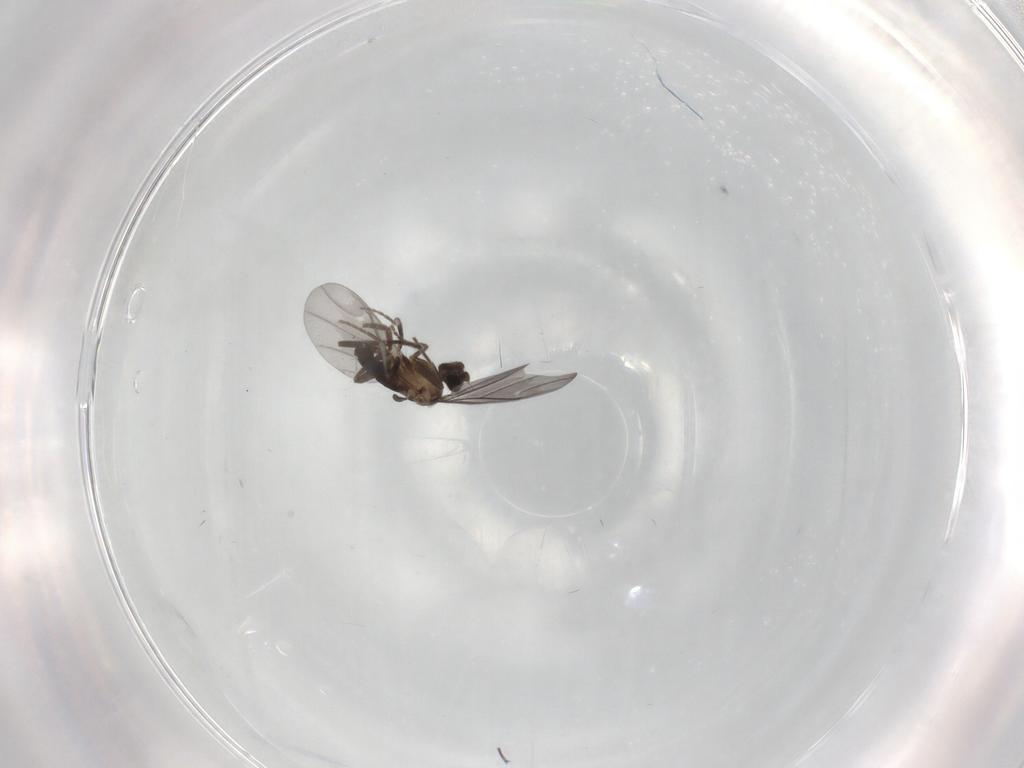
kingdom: Animalia
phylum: Arthropoda
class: Insecta
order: Diptera
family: Phoridae
